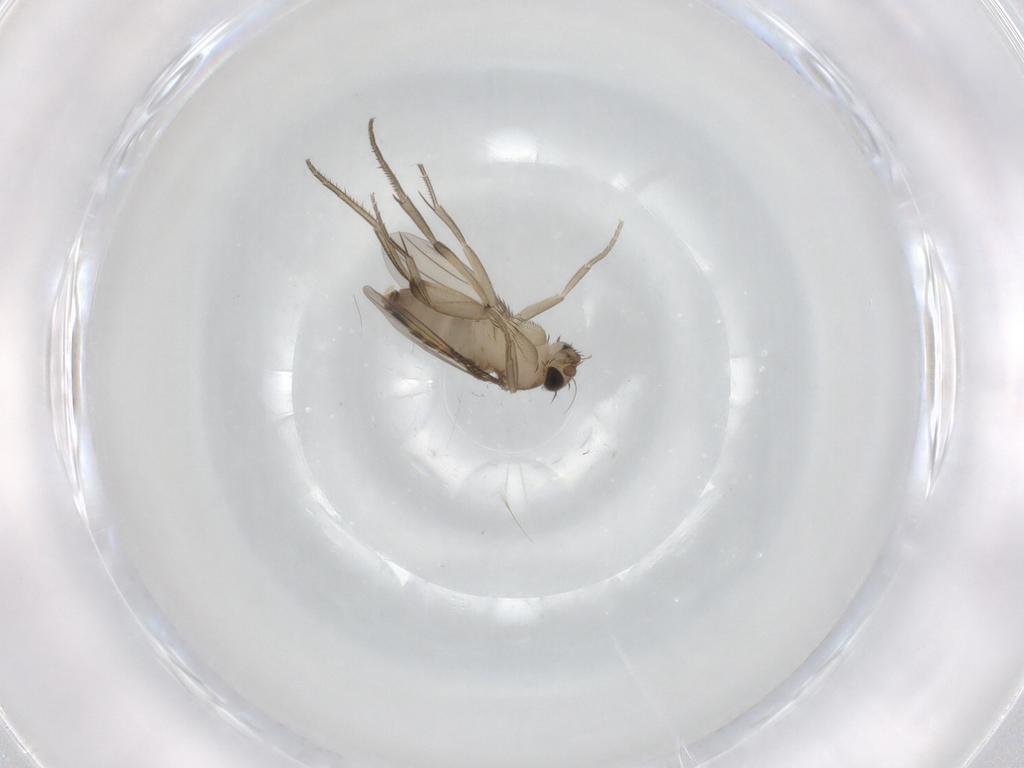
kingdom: Animalia
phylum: Arthropoda
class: Insecta
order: Diptera
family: Phoridae
